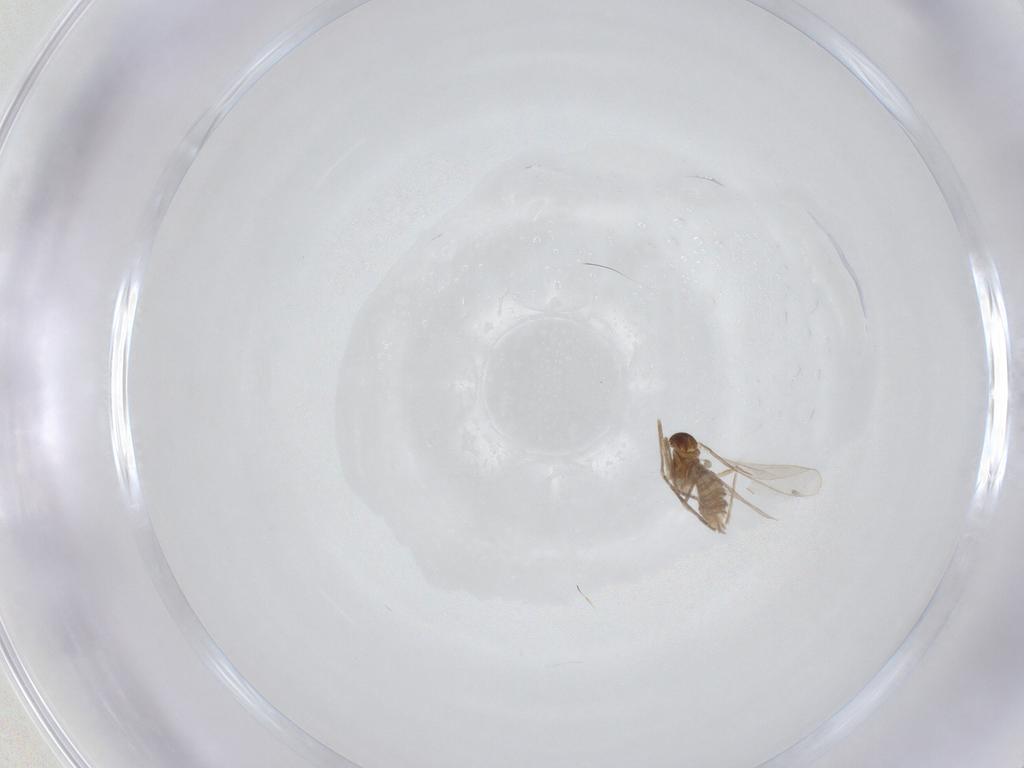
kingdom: Animalia
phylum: Arthropoda
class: Insecta
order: Diptera
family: Cecidomyiidae
